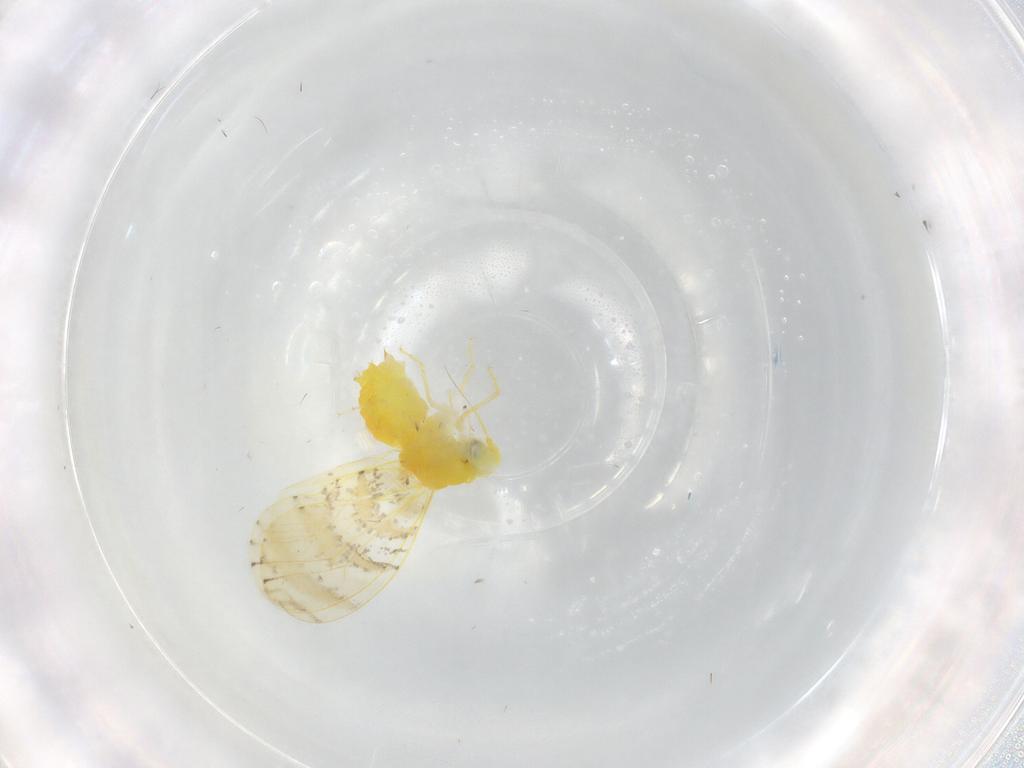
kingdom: Animalia
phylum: Arthropoda
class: Insecta
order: Hemiptera
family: Aleyrodidae
